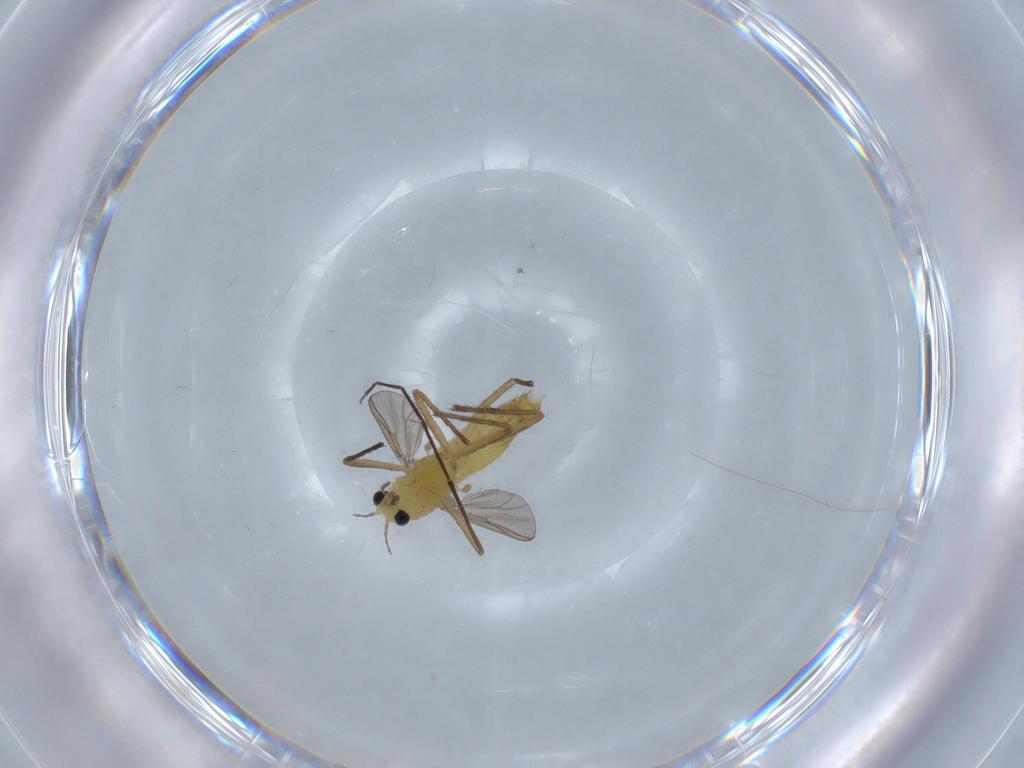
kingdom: Animalia
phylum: Arthropoda
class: Insecta
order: Diptera
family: Chironomidae
